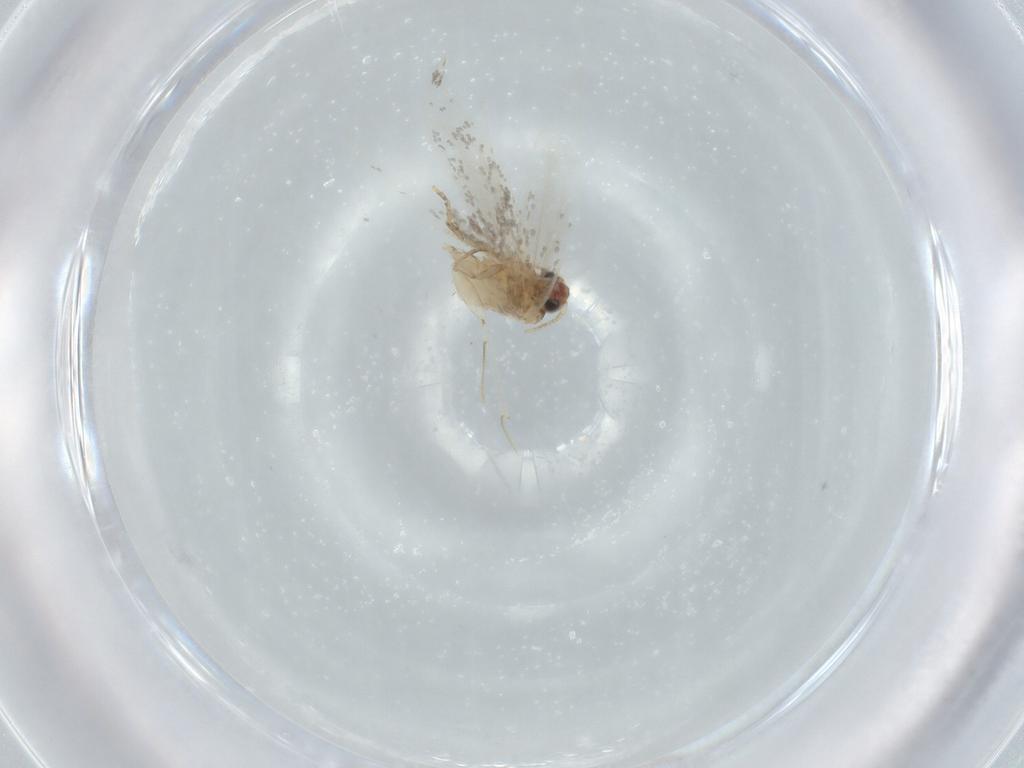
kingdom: Animalia
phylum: Arthropoda
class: Insecta
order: Lepidoptera
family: Meessiidae
